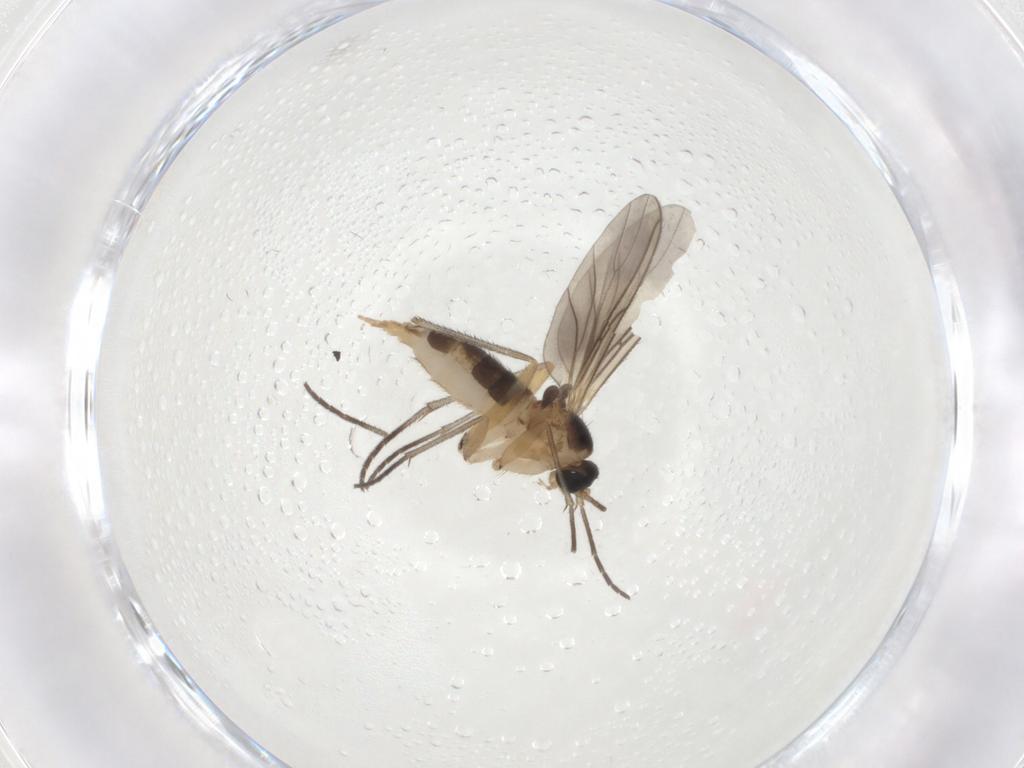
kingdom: Animalia
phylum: Arthropoda
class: Insecta
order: Diptera
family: Sciaridae
